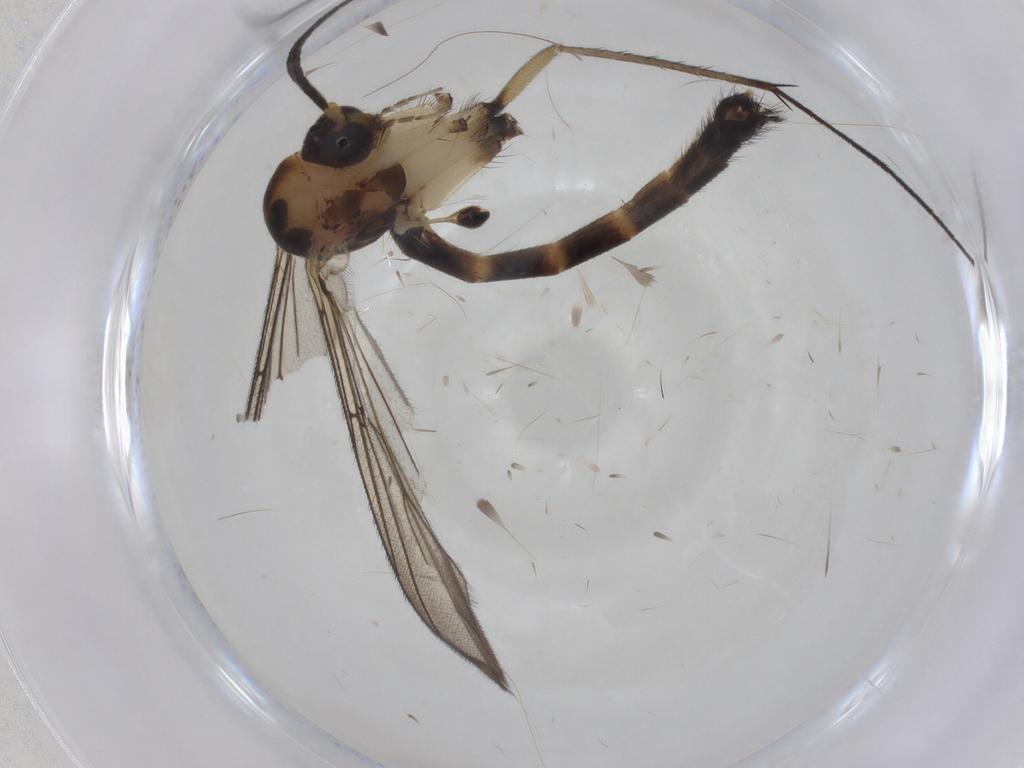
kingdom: Animalia
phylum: Arthropoda
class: Insecta
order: Diptera
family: Mycetophilidae
